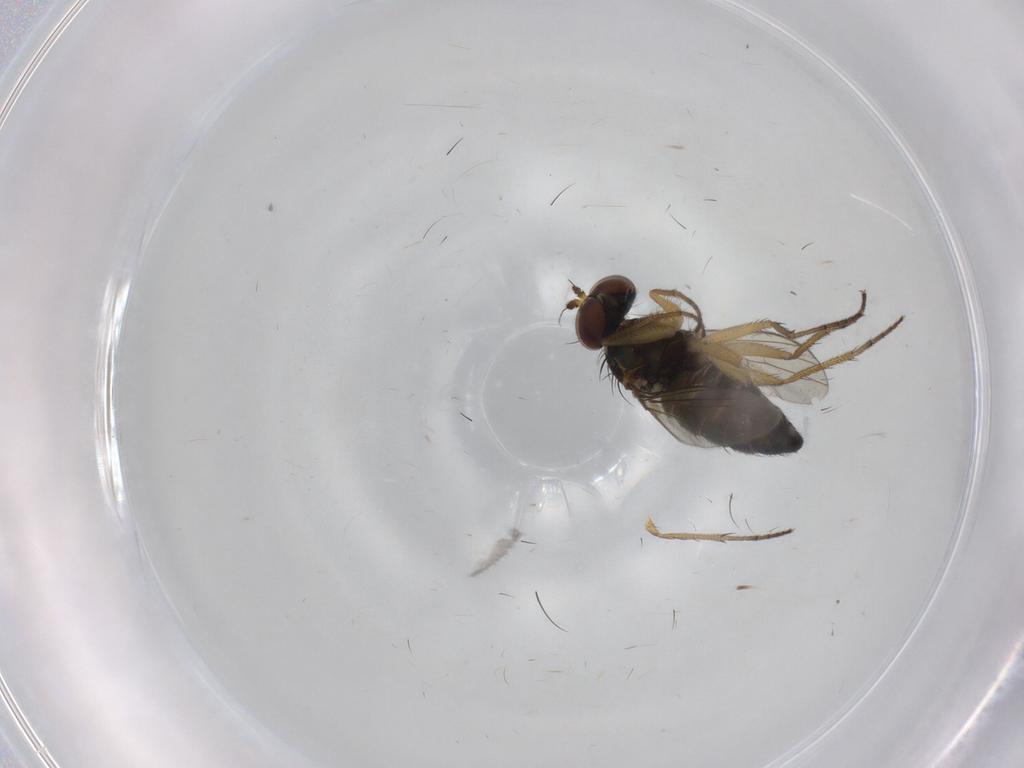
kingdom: Animalia
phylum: Arthropoda
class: Insecta
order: Diptera
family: Dolichopodidae
